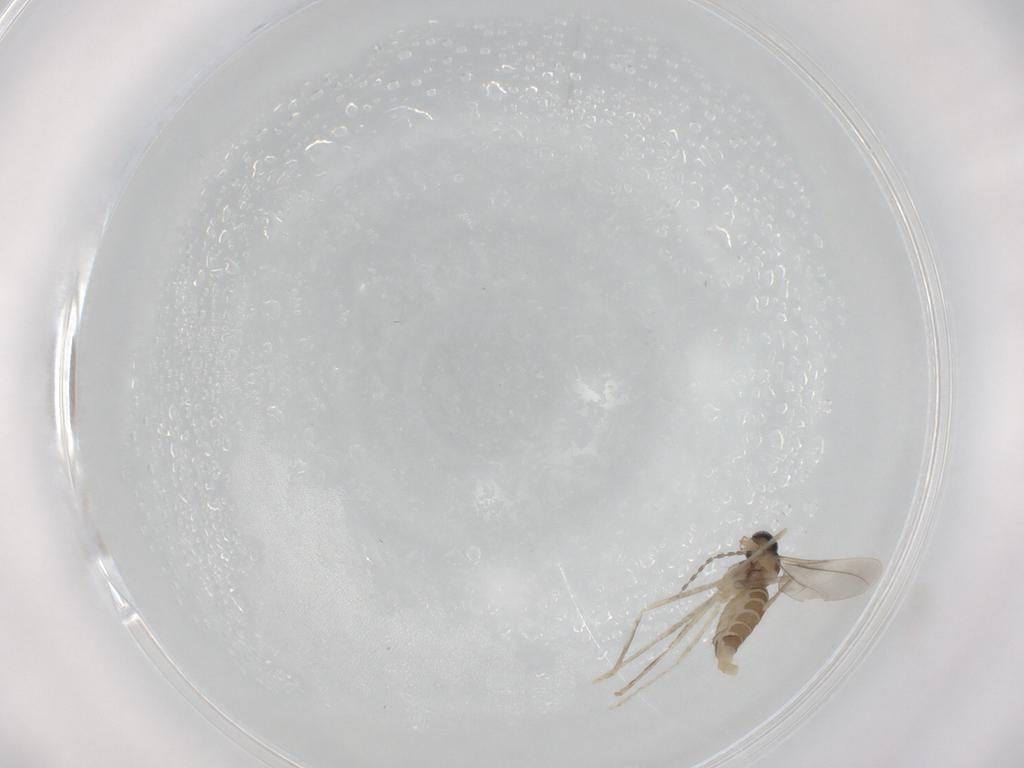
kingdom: Animalia
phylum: Arthropoda
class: Insecta
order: Diptera
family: Cecidomyiidae
